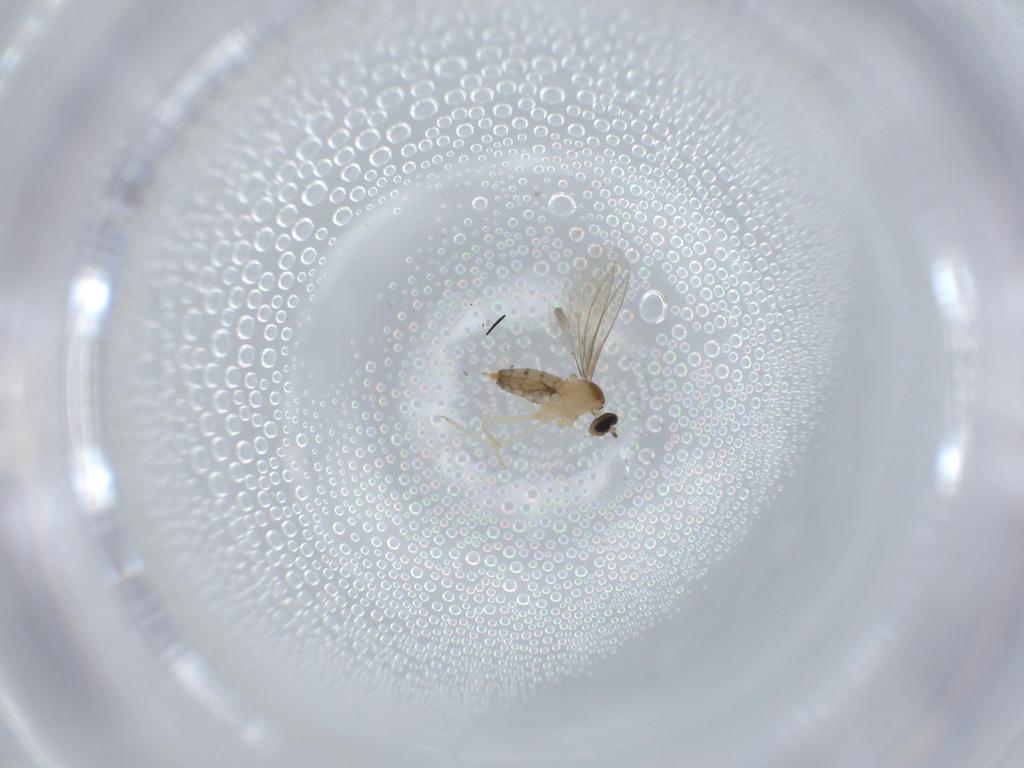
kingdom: Animalia
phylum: Arthropoda
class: Insecta
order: Diptera
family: Cecidomyiidae
